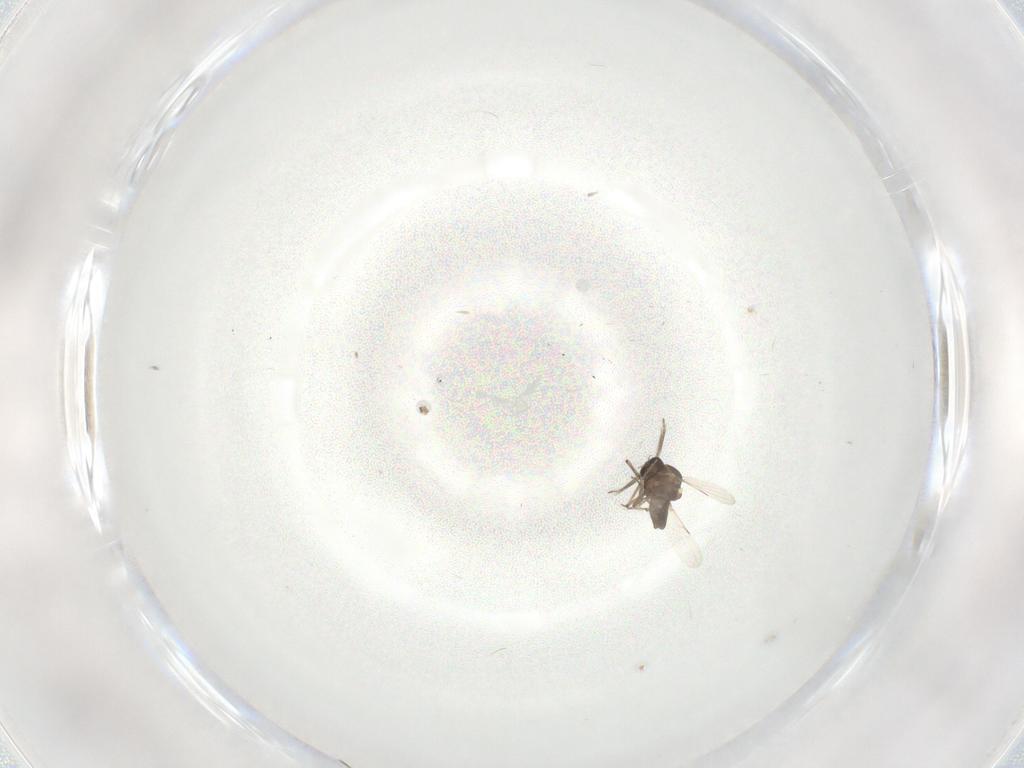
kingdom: Animalia
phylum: Arthropoda
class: Insecta
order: Diptera
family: Ceratopogonidae
